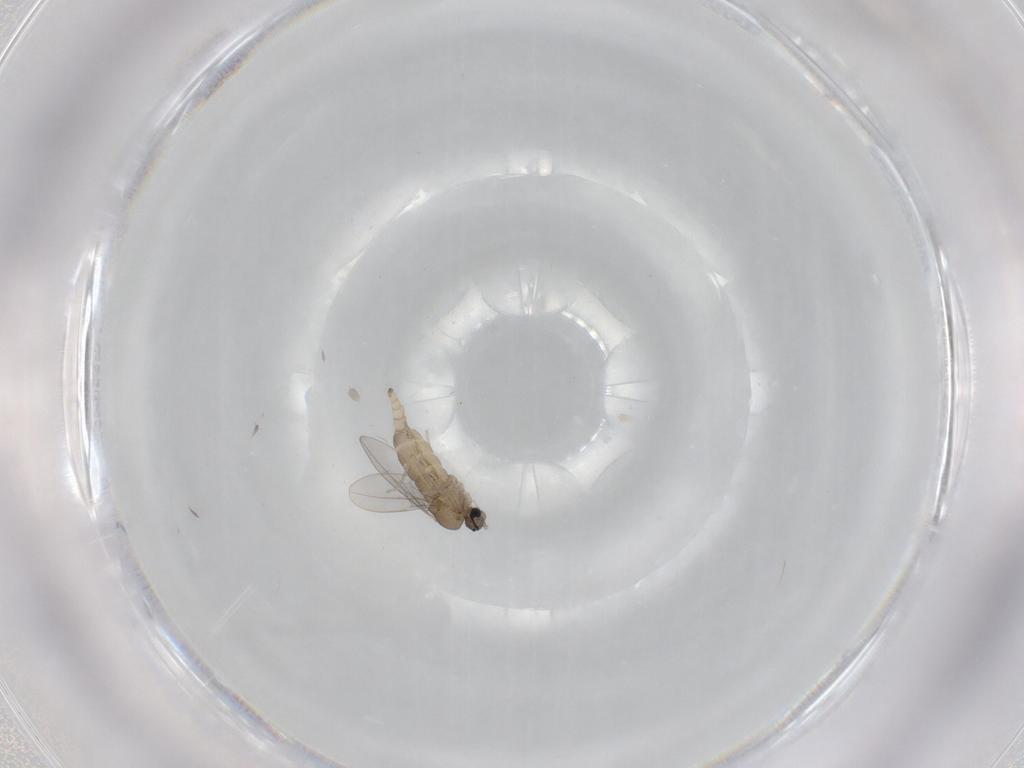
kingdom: Animalia
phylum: Arthropoda
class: Insecta
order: Diptera
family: Cecidomyiidae
